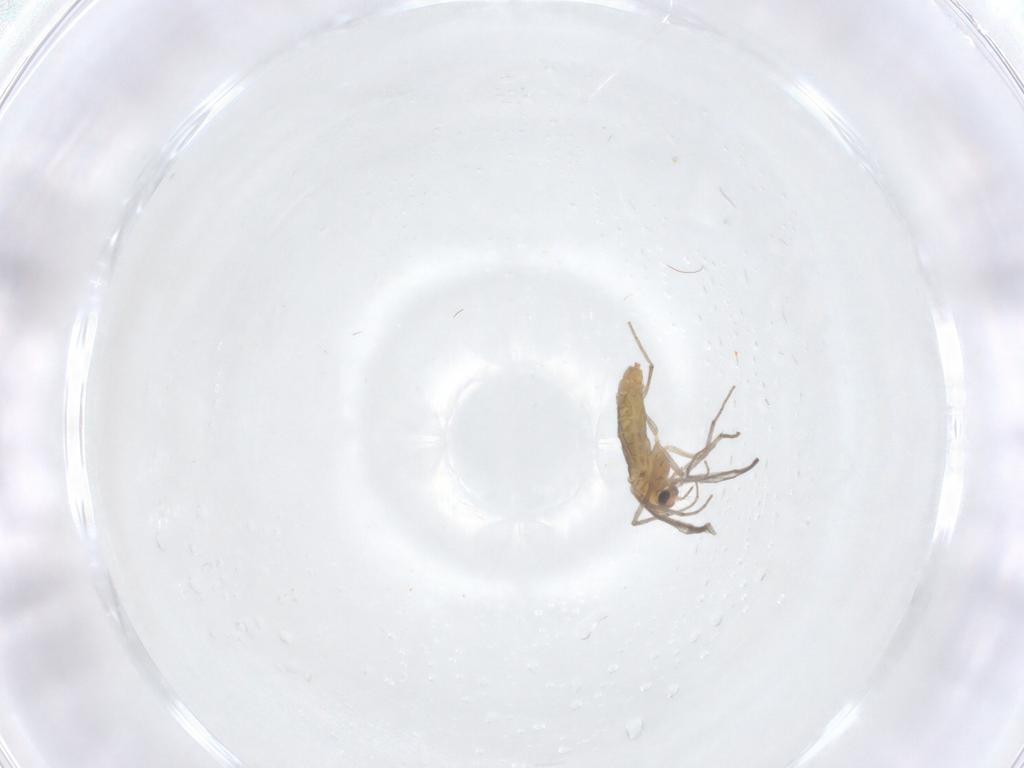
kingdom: Animalia
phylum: Arthropoda
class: Insecta
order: Diptera
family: Chironomidae
